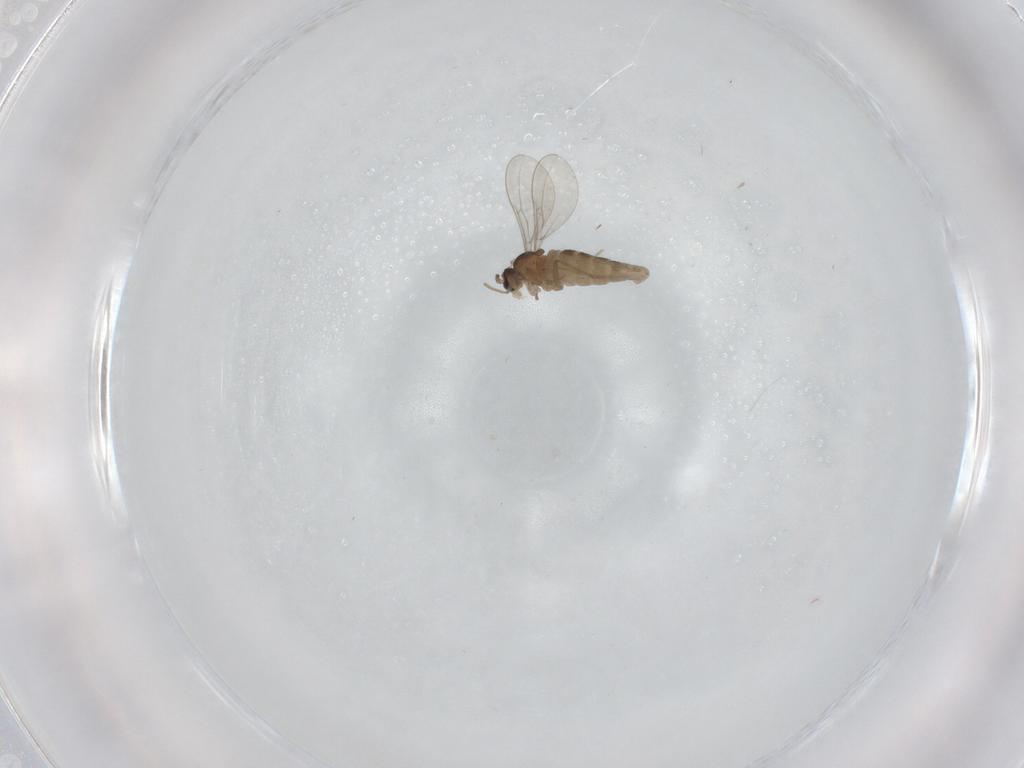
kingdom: Animalia
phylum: Arthropoda
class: Insecta
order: Diptera
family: Cecidomyiidae
